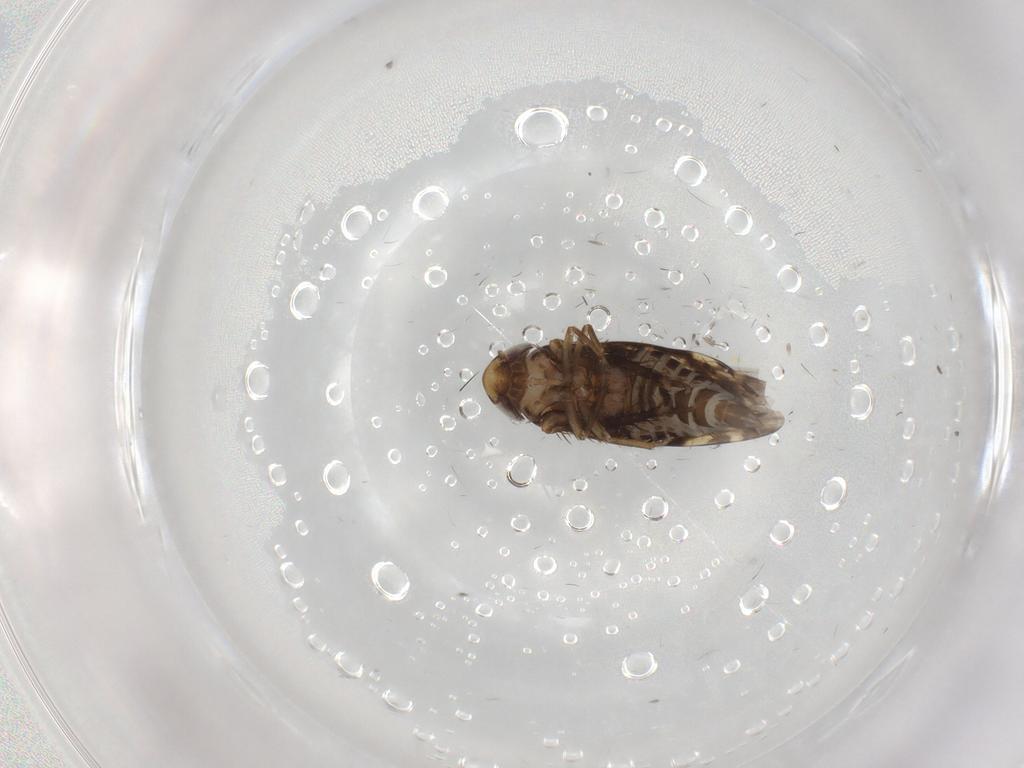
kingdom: Animalia
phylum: Arthropoda
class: Insecta
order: Hemiptera
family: Cicadellidae
